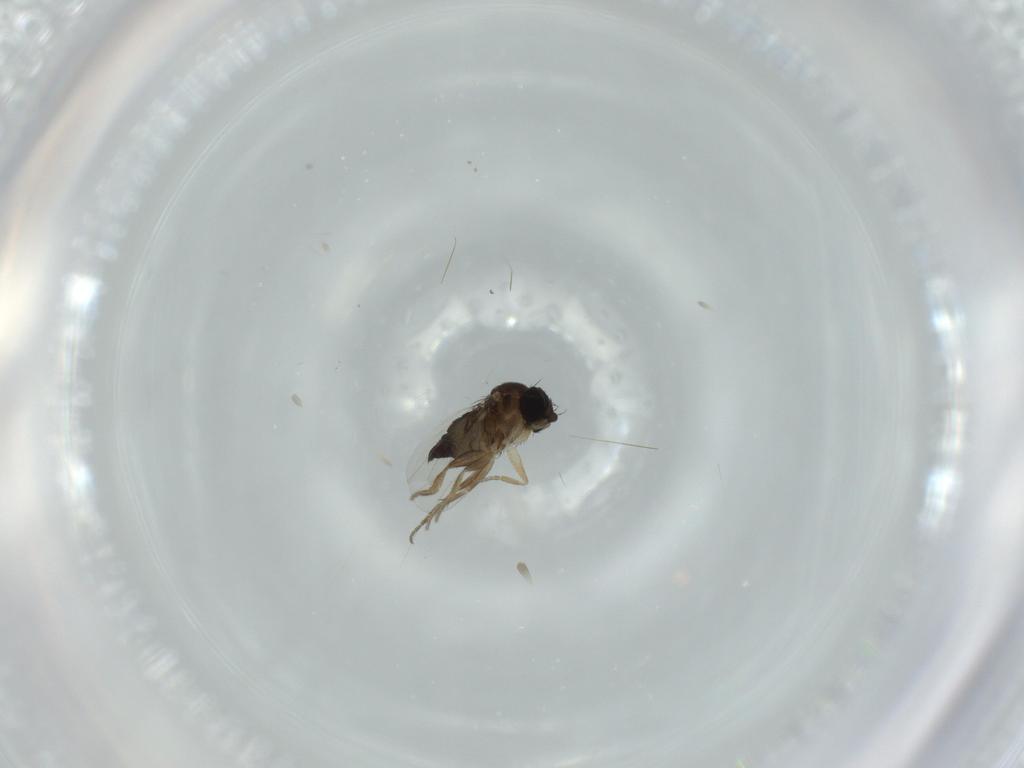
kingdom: Animalia
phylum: Arthropoda
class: Insecta
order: Diptera
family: Phoridae
